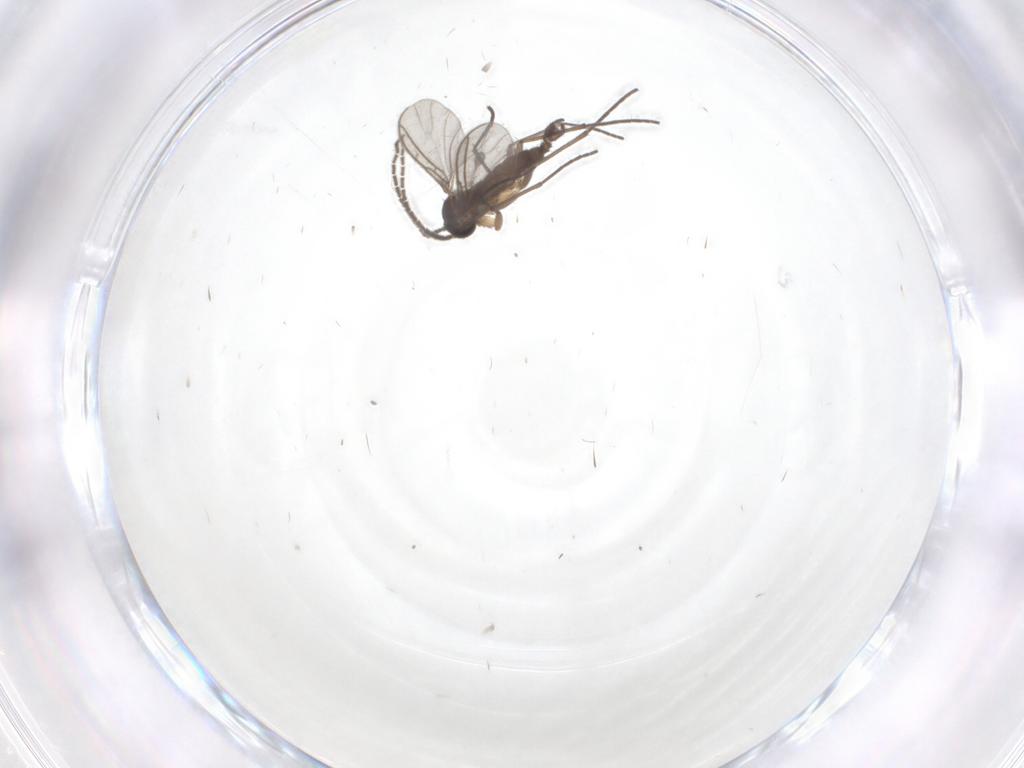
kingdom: Animalia
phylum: Arthropoda
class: Insecta
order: Diptera
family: Sciaridae
